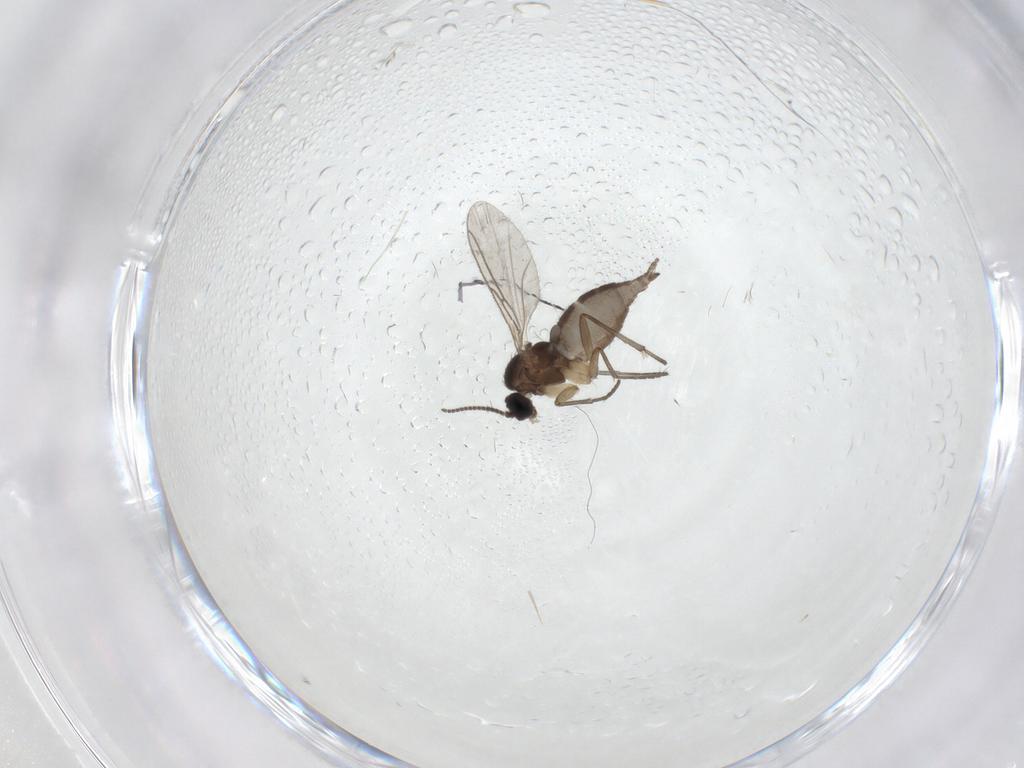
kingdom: Animalia
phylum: Arthropoda
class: Insecta
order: Diptera
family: Sciaridae
